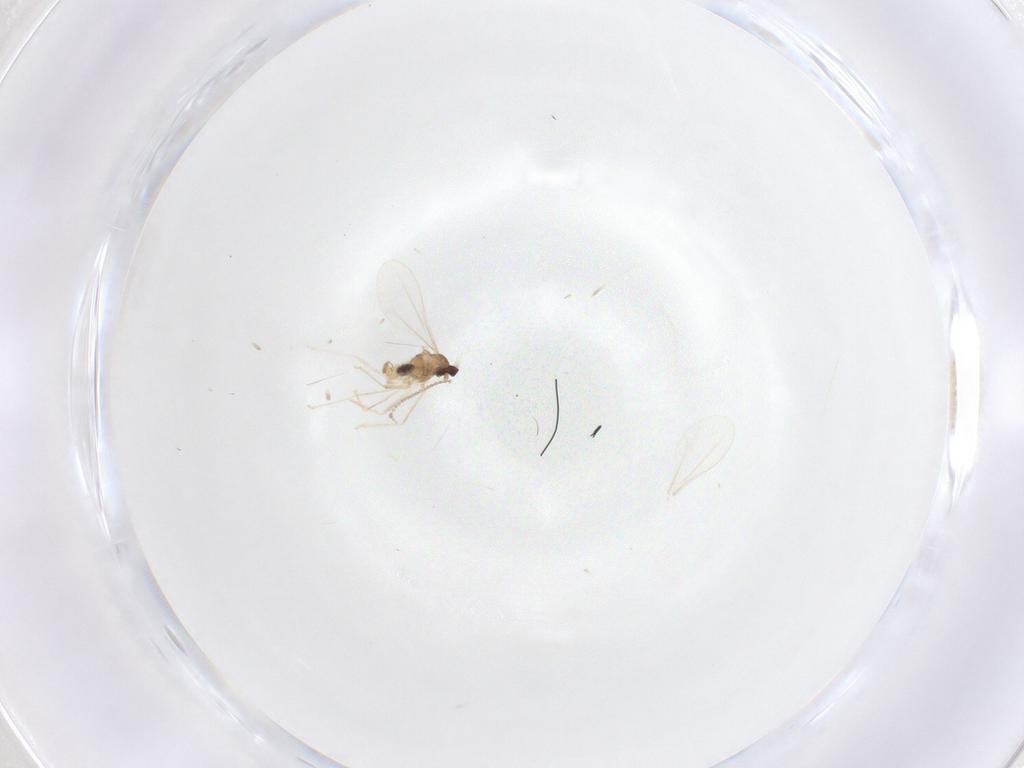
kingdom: Animalia
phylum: Arthropoda
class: Insecta
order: Diptera
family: Cecidomyiidae
